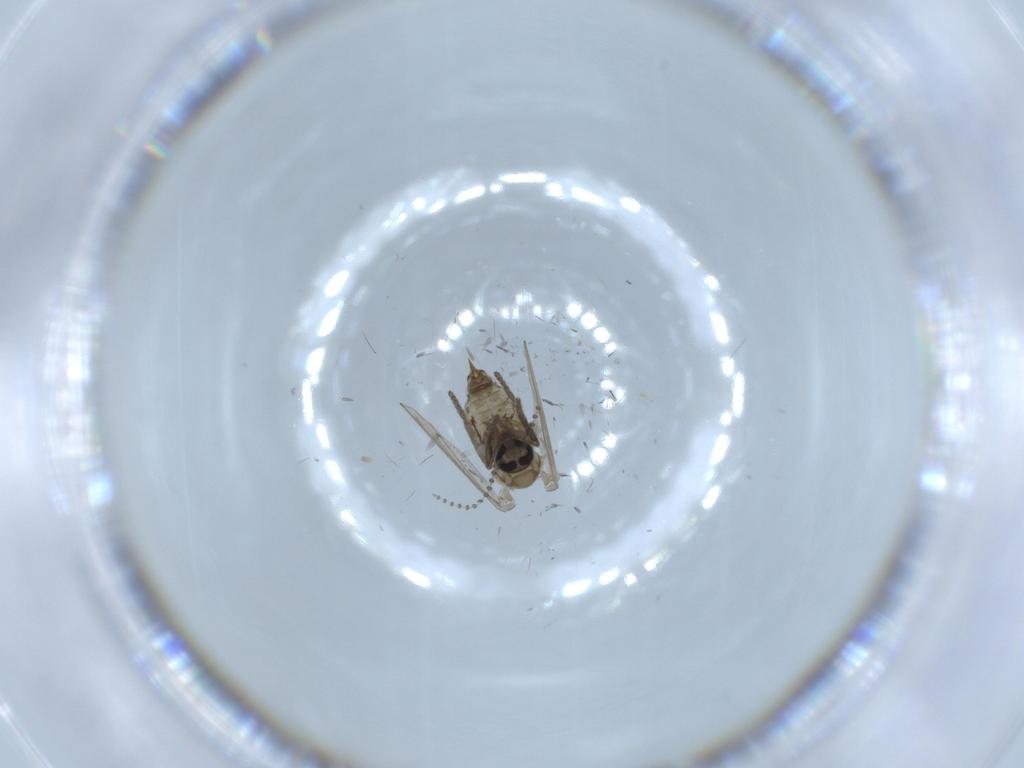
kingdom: Animalia
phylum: Arthropoda
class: Insecta
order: Diptera
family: Psychodidae
